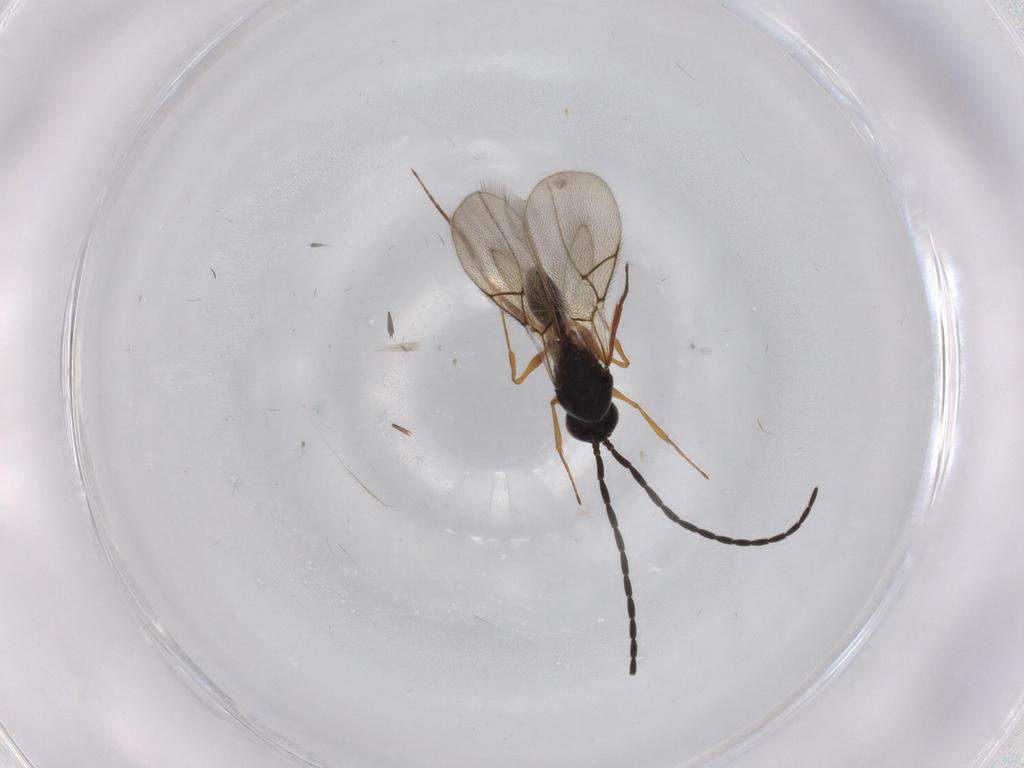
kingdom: Animalia
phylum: Arthropoda
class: Insecta
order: Hymenoptera
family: Figitidae
